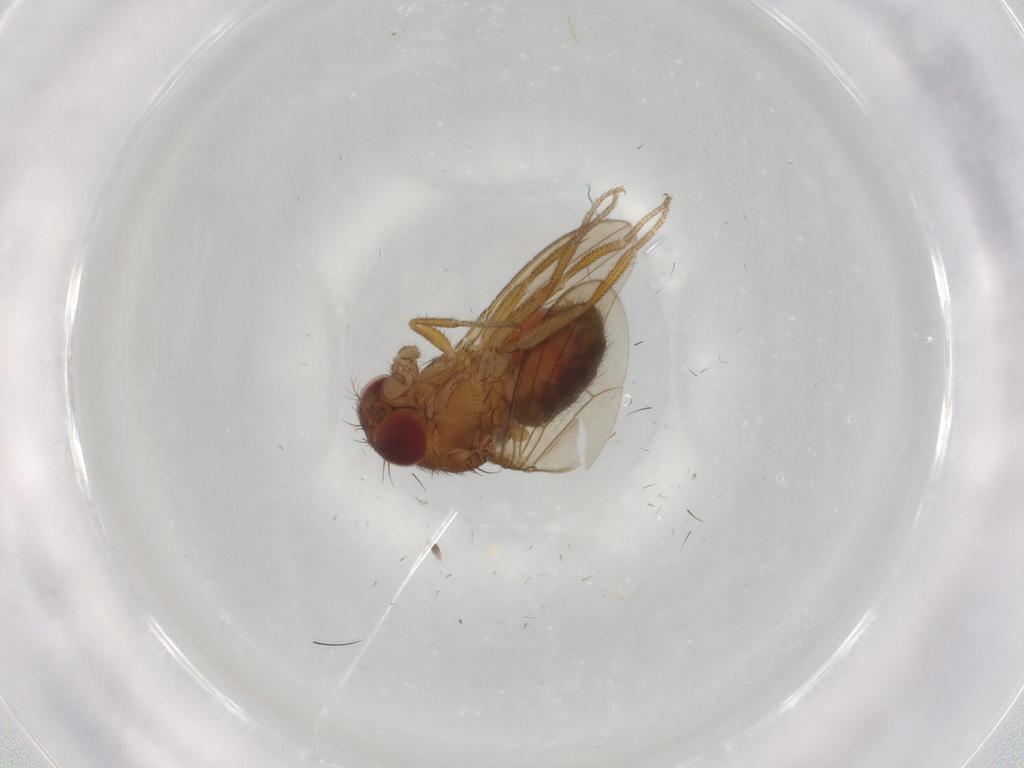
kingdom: Animalia
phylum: Arthropoda
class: Insecta
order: Diptera
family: Drosophilidae
